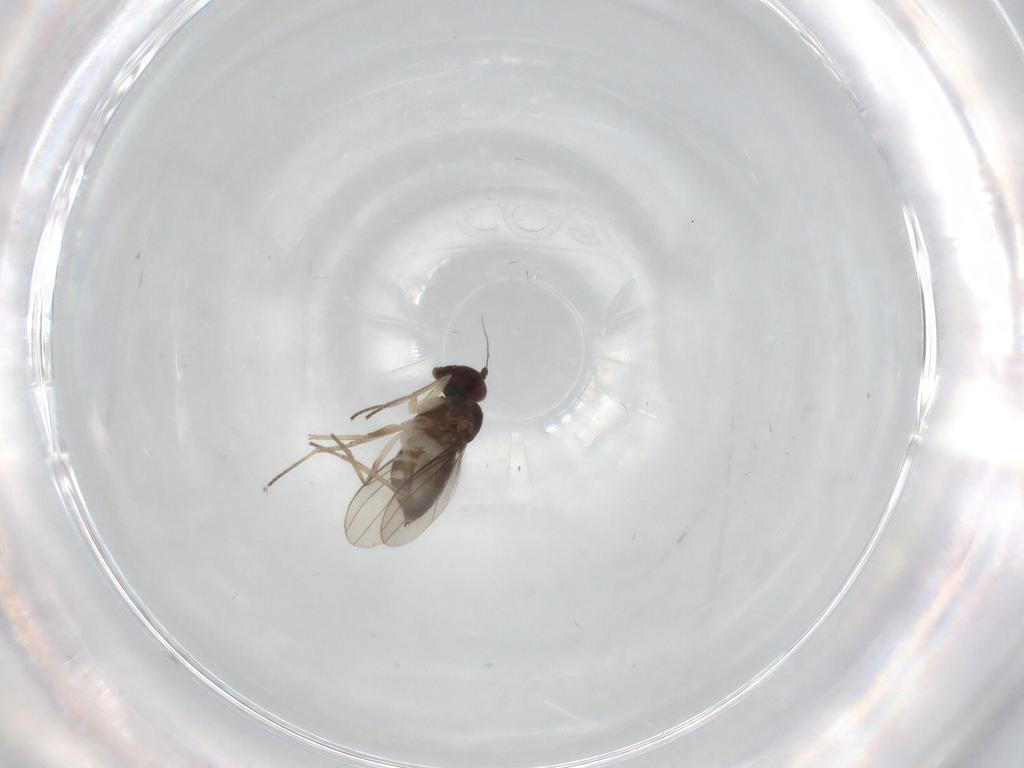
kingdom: Animalia
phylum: Arthropoda
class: Insecta
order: Diptera
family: Dolichopodidae
